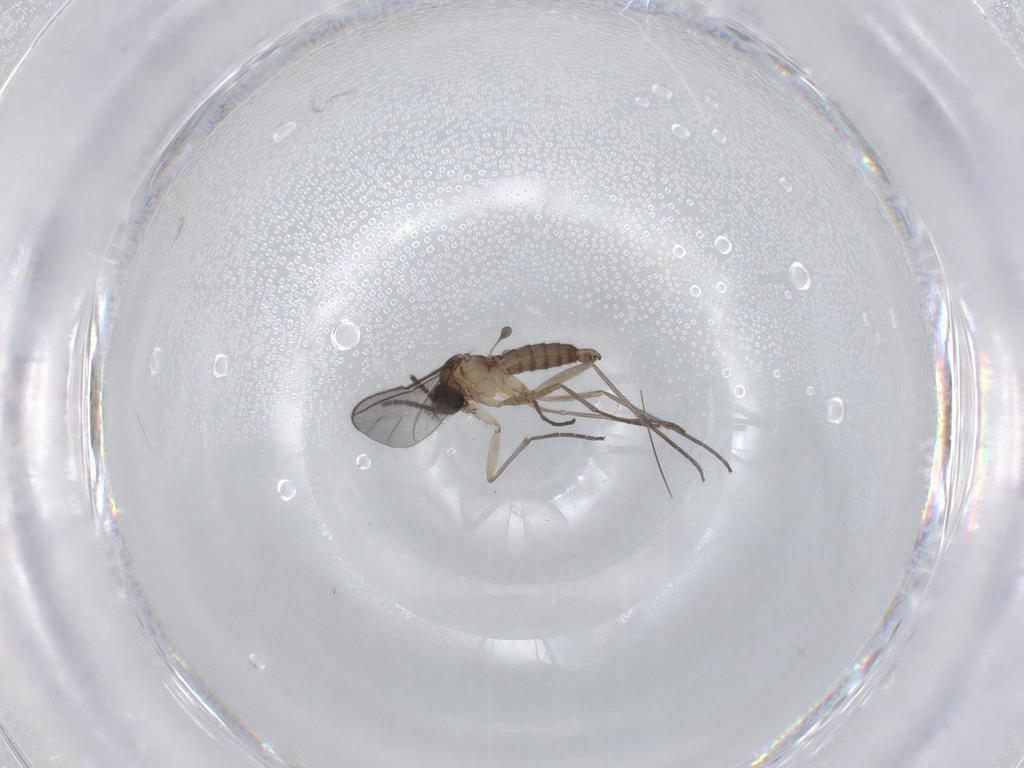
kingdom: Animalia
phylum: Arthropoda
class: Insecta
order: Diptera
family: Sciaridae
